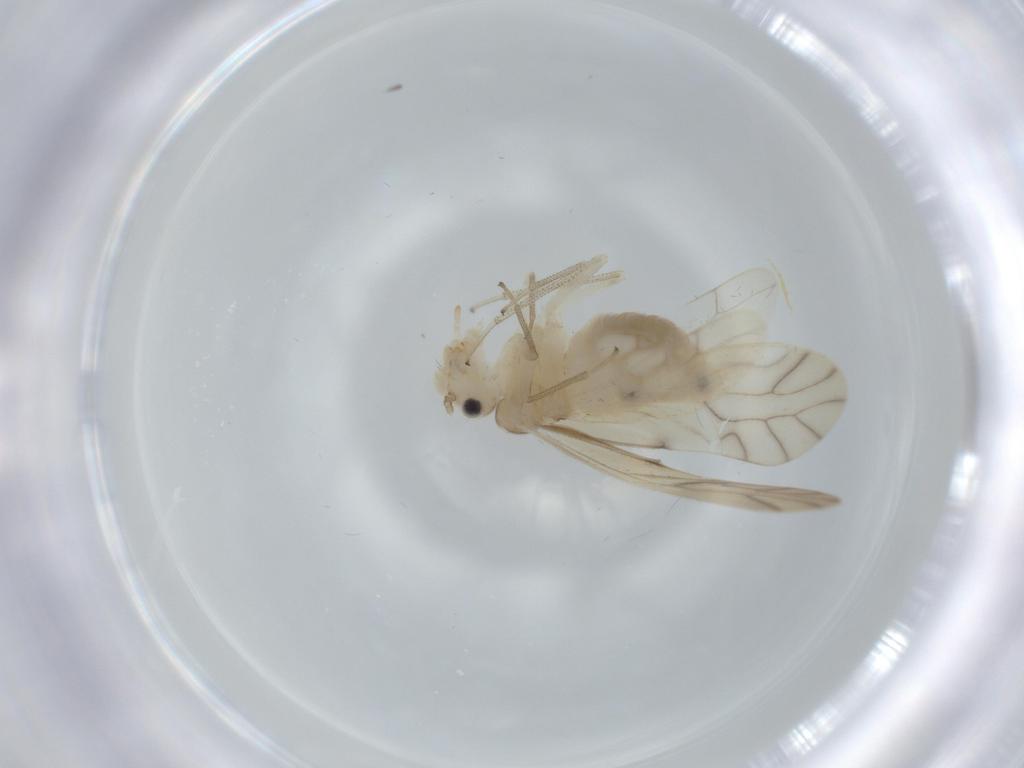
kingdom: Animalia
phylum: Arthropoda
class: Insecta
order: Psocodea
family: Caeciliusidae
